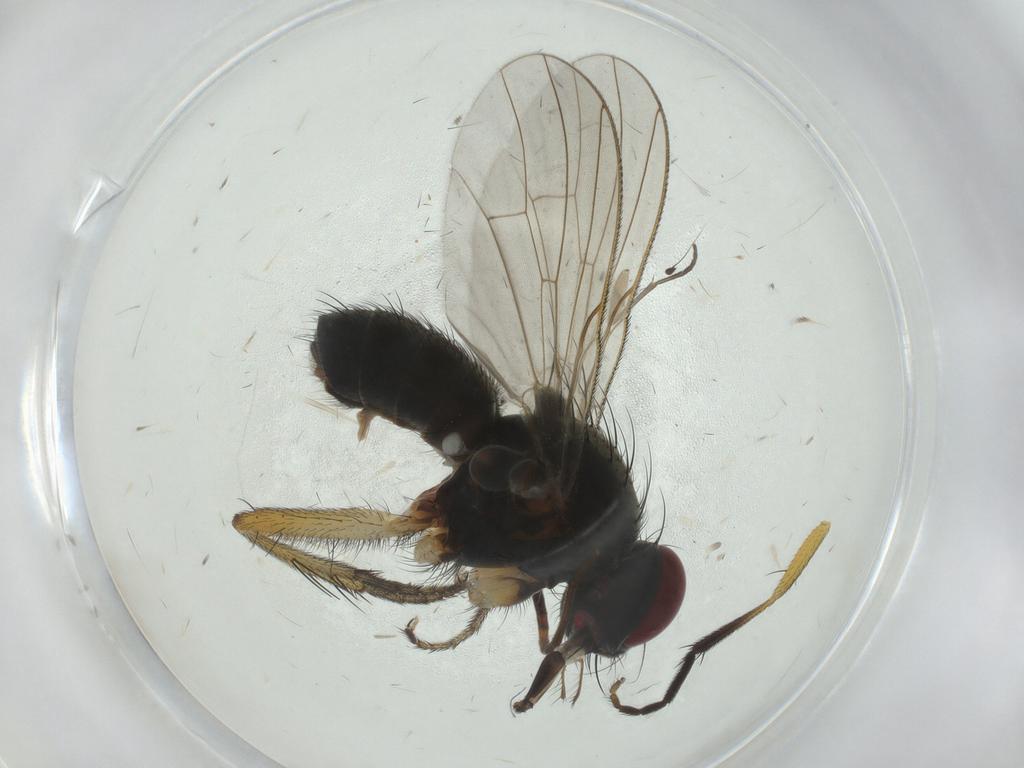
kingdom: Animalia
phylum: Arthropoda
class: Insecta
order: Diptera
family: Muscidae
